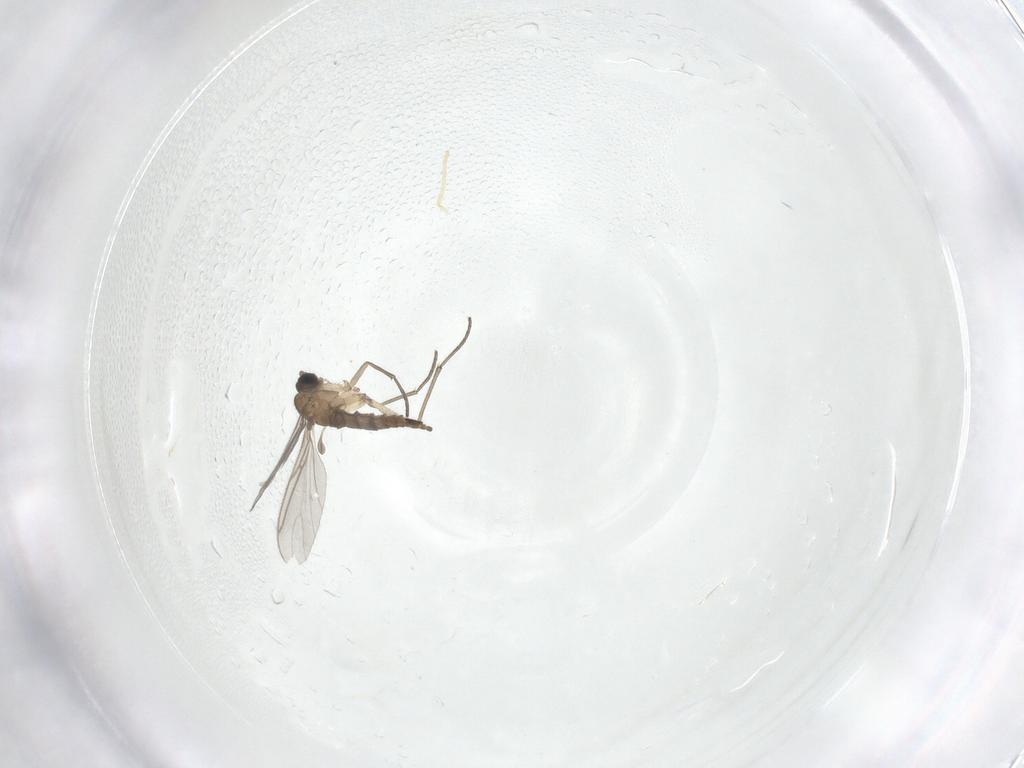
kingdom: Animalia
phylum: Arthropoda
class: Insecta
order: Diptera
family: Sciaridae
